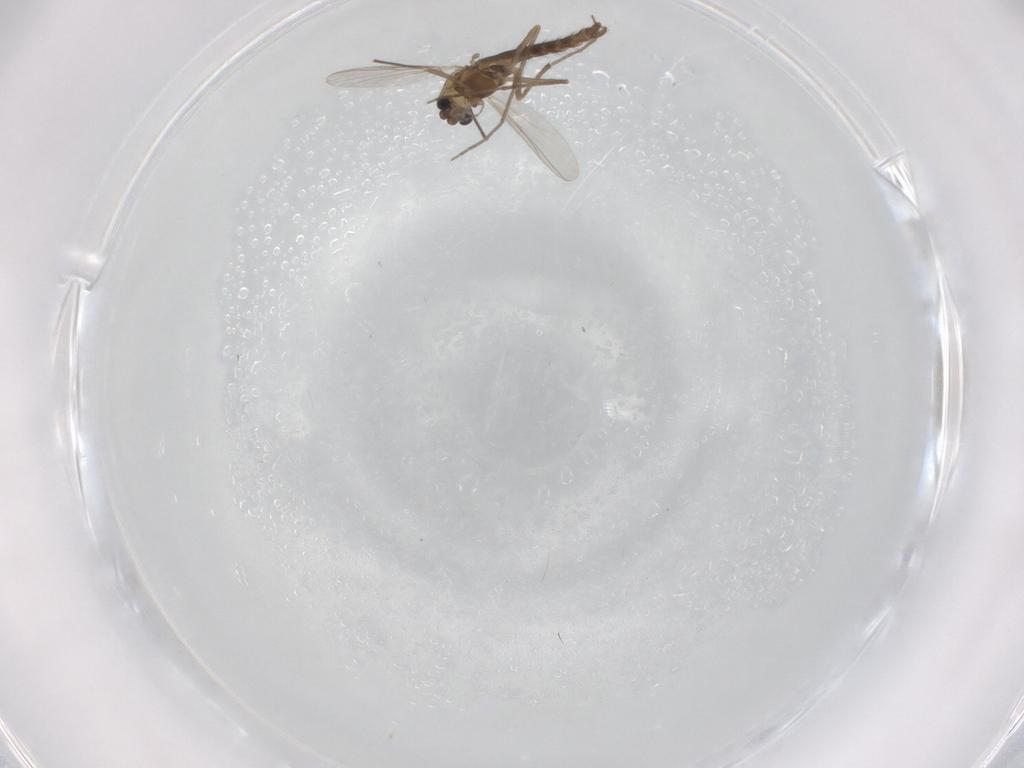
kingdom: Animalia
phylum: Arthropoda
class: Insecta
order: Diptera
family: Chironomidae
